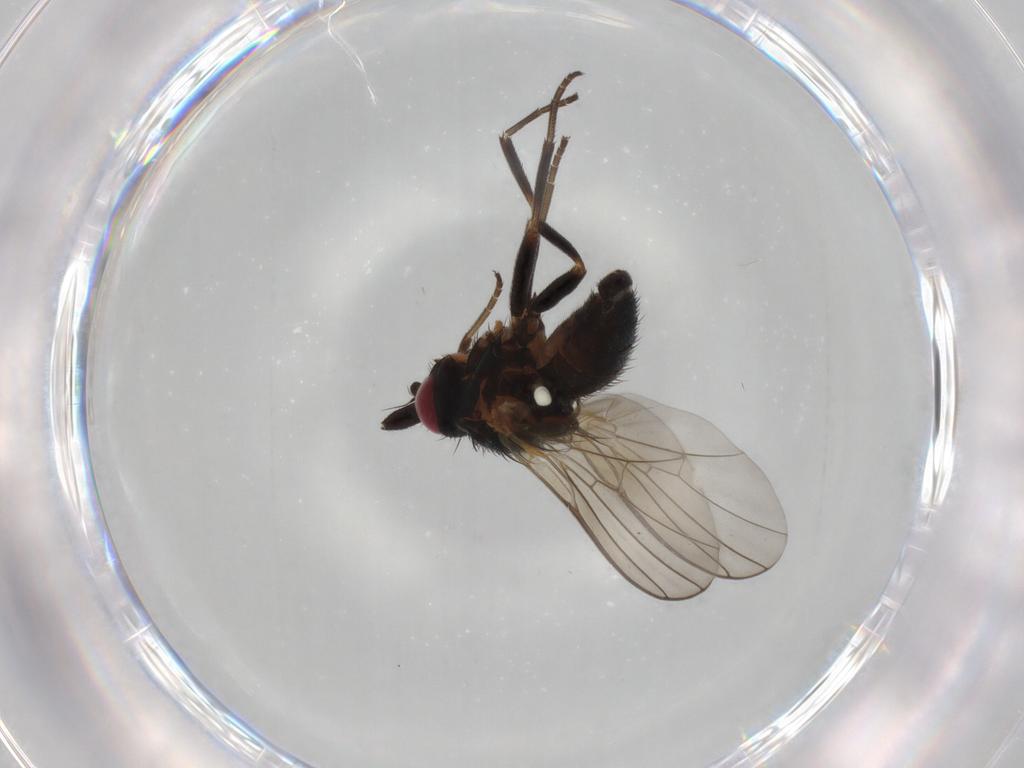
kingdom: Animalia
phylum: Arthropoda
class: Insecta
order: Diptera
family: Agromyzidae
